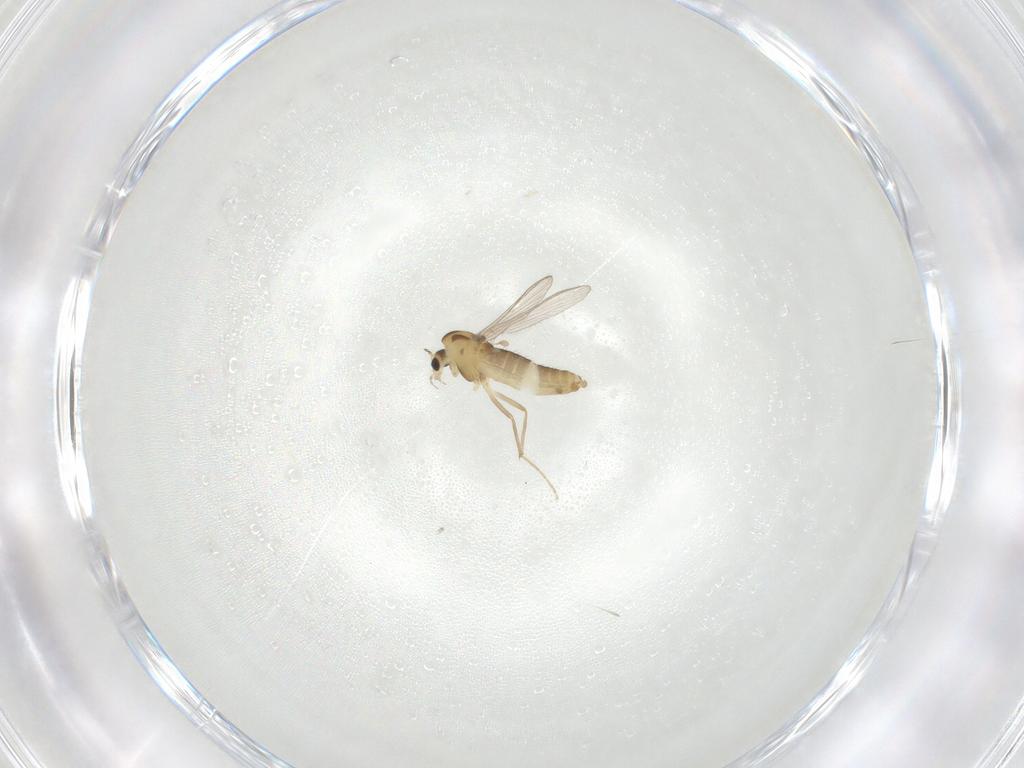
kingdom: Animalia
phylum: Arthropoda
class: Insecta
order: Diptera
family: Chironomidae
